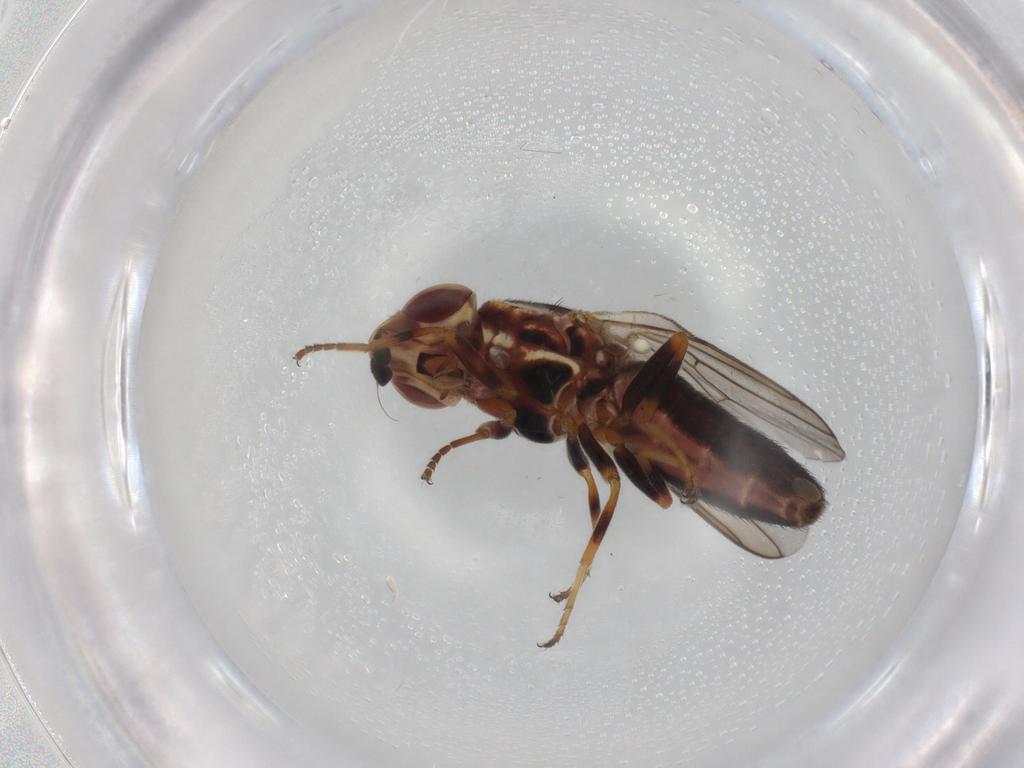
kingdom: Animalia
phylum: Arthropoda
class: Insecta
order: Diptera
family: Chloropidae
